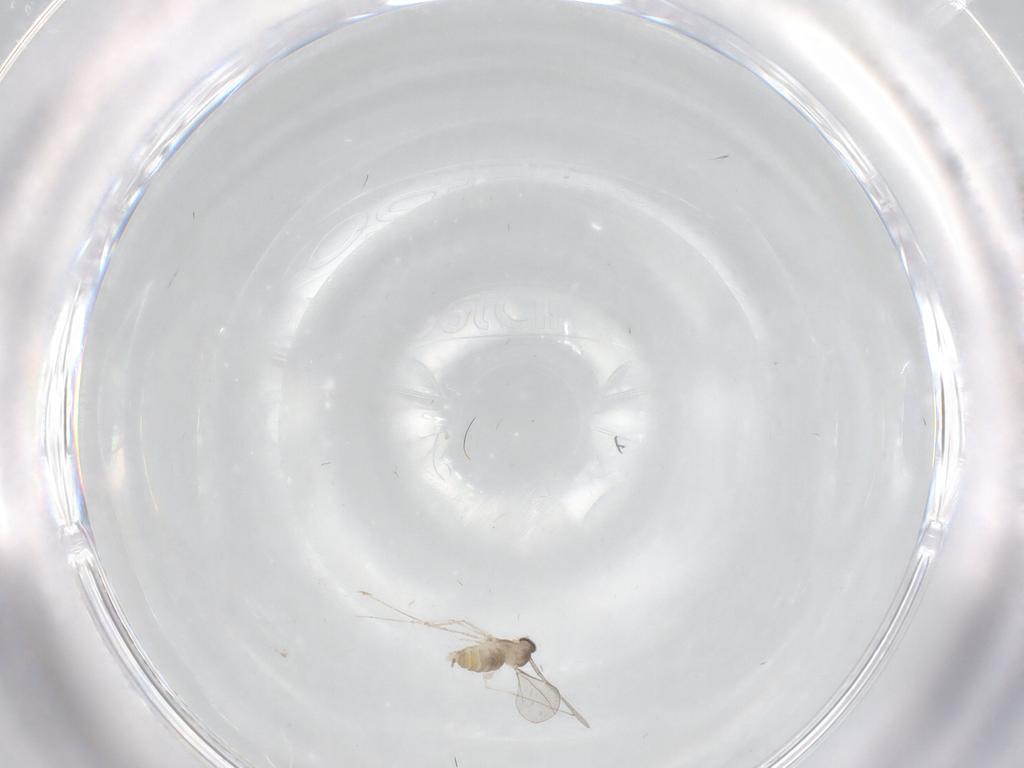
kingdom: Animalia
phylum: Arthropoda
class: Insecta
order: Diptera
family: Cecidomyiidae
